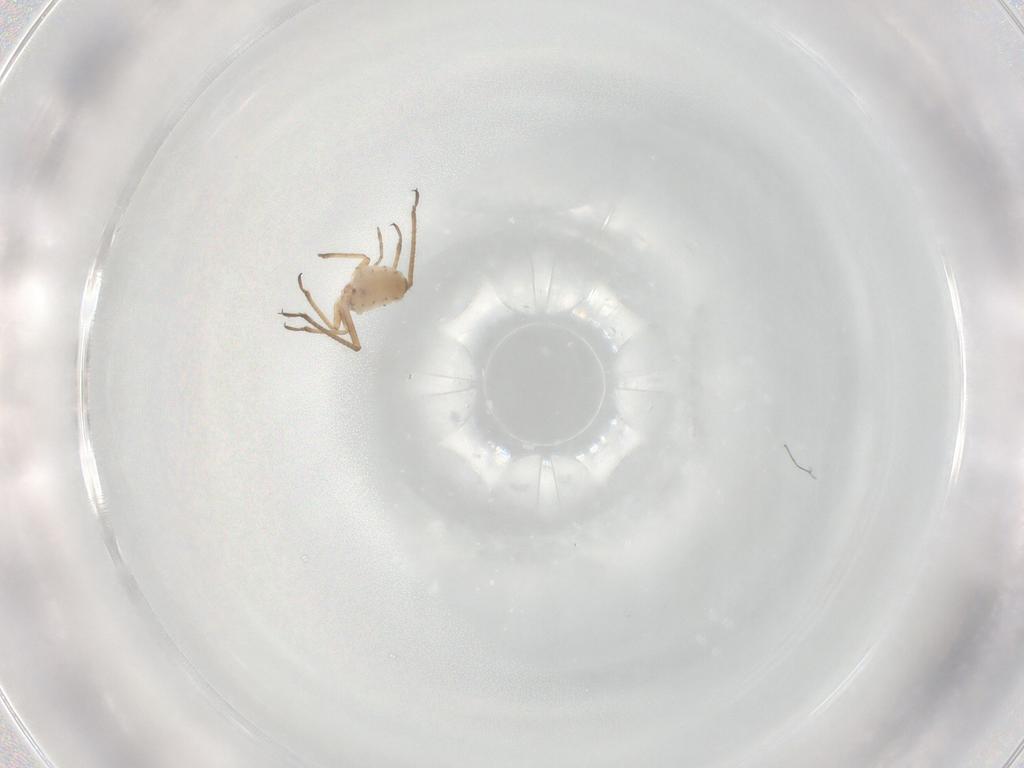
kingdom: Animalia
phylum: Arthropoda
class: Insecta
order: Hemiptera
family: Aphididae
